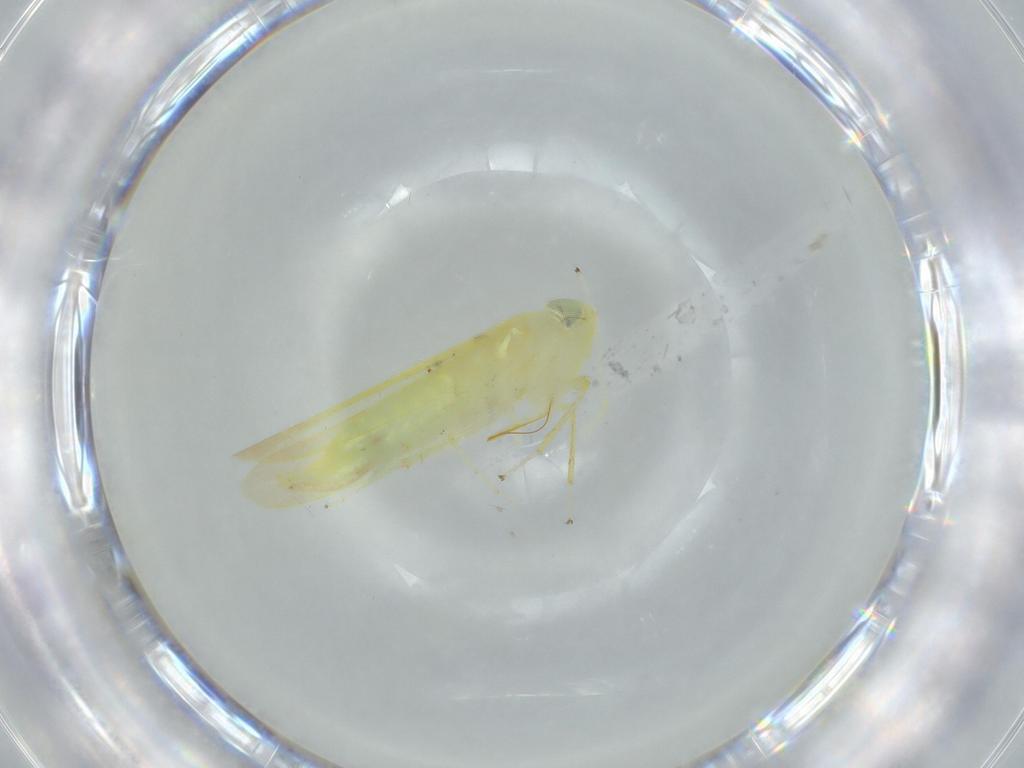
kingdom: Animalia
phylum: Arthropoda
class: Insecta
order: Hemiptera
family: Cicadellidae
